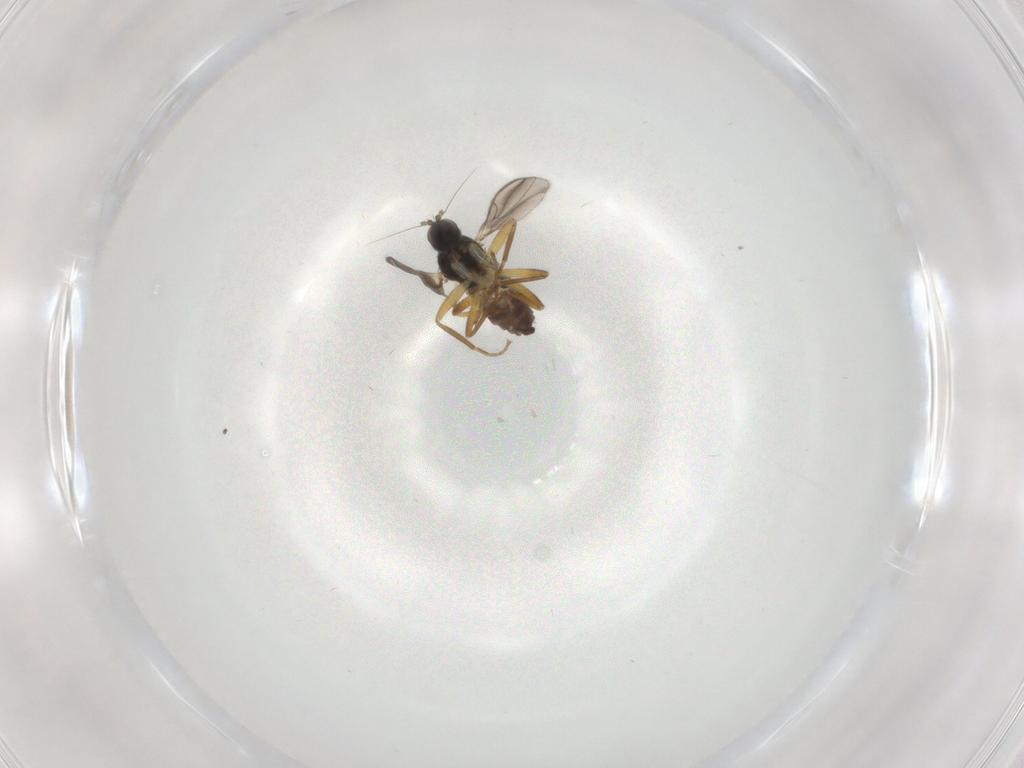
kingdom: Animalia
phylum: Arthropoda
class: Insecta
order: Diptera
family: Hybotidae
